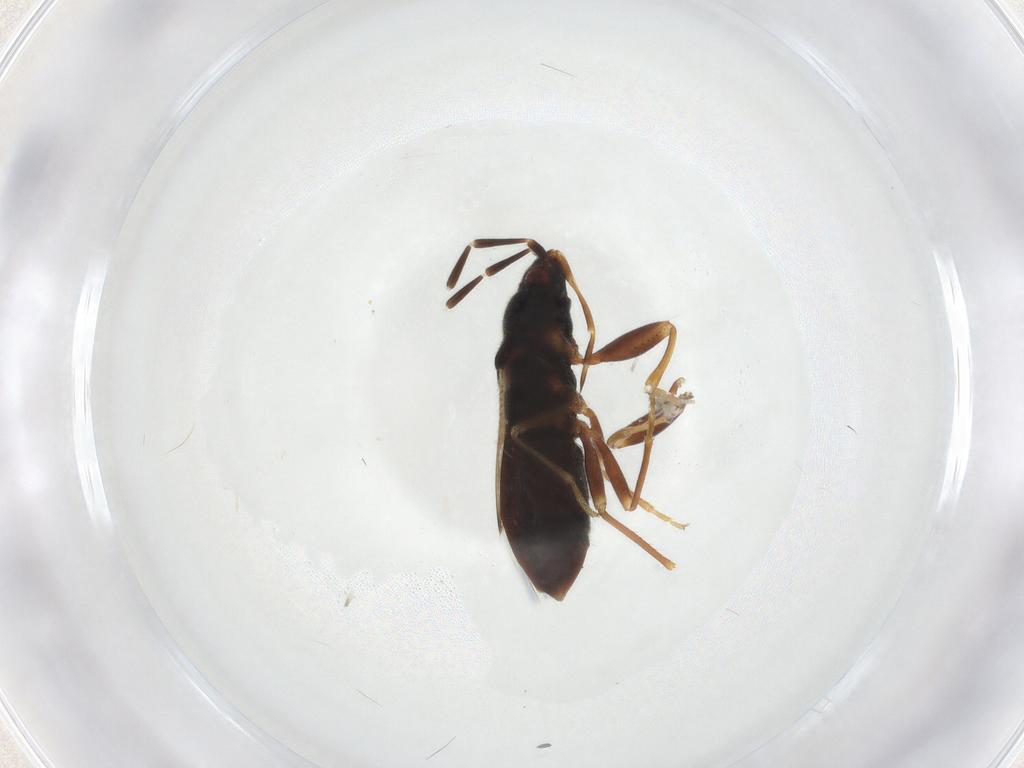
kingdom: Animalia
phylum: Arthropoda
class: Insecta
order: Hemiptera
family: Rhyparochromidae
